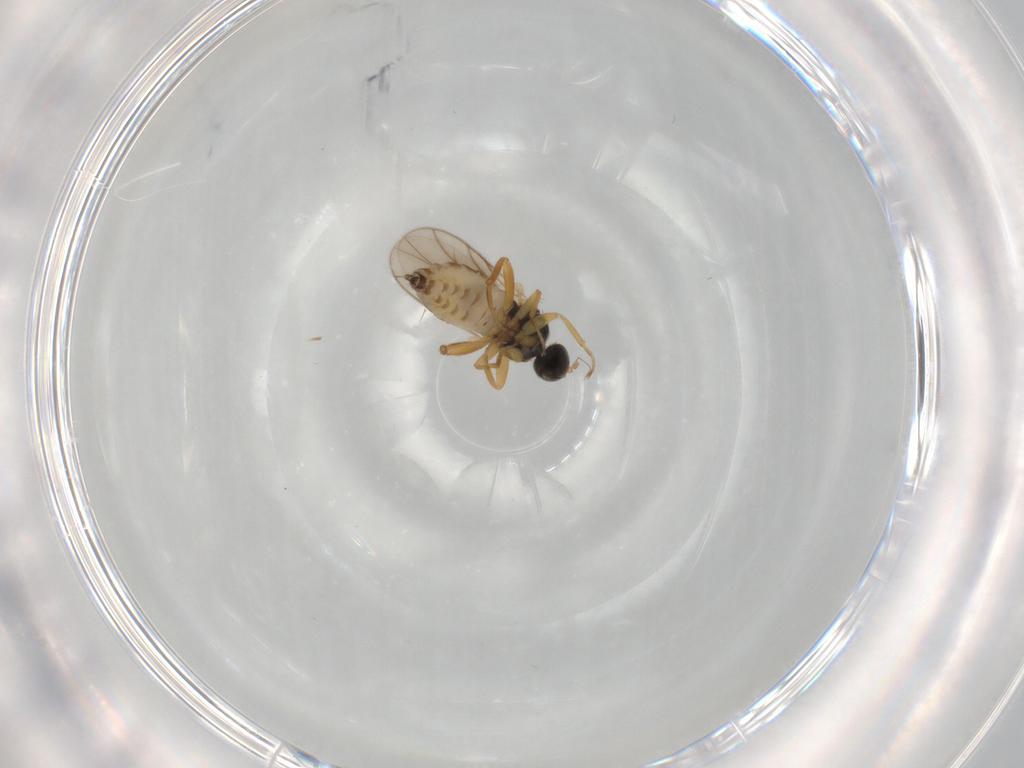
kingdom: Animalia
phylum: Arthropoda
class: Insecta
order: Diptera
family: Hybotidae
